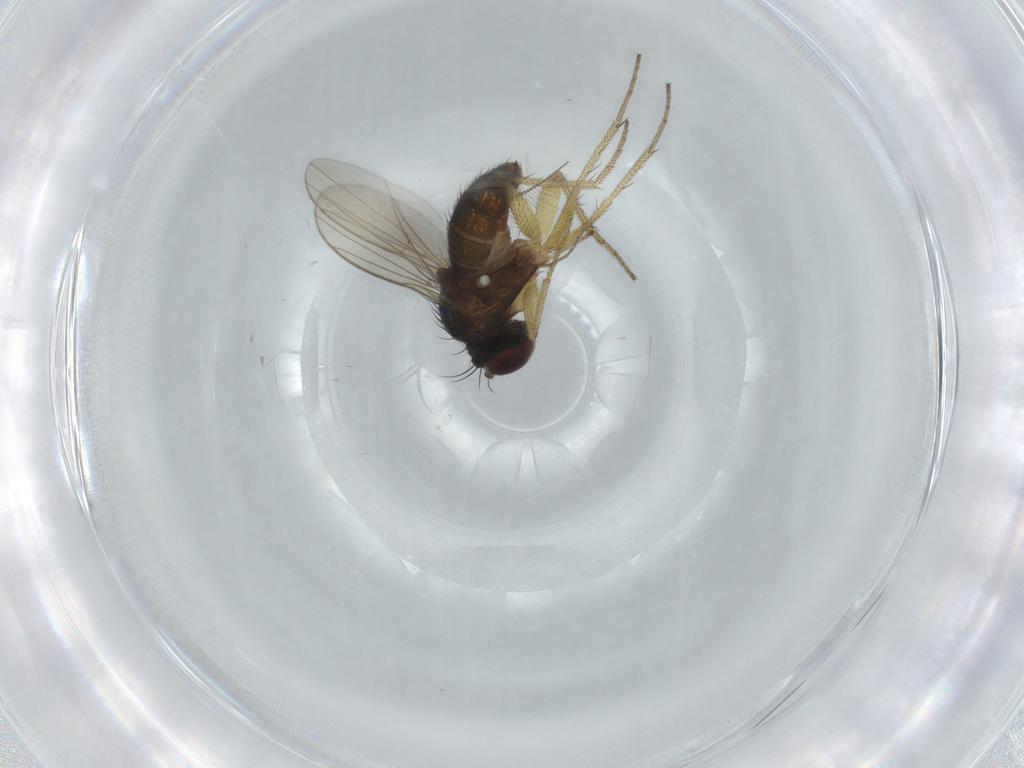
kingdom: Animalia
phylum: Arthropoda
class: Insecta
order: Diptera
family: Dolichopodidae
